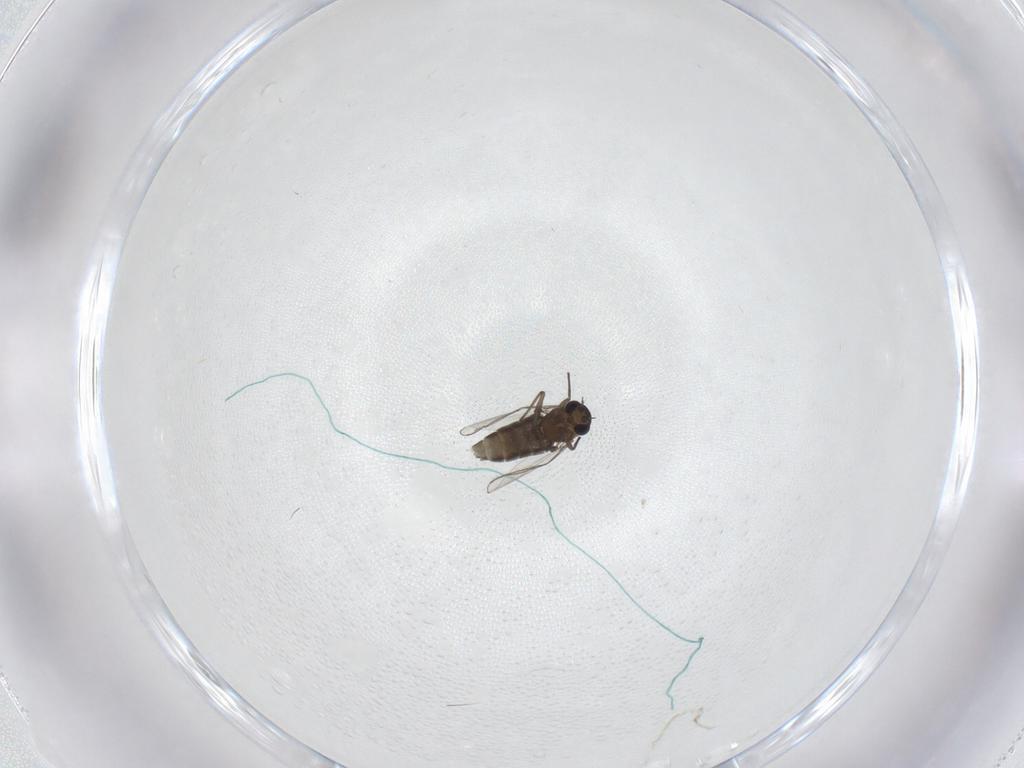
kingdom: Animalia
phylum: Arthropoda
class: Insecta
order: Diptera
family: Chironomidae
